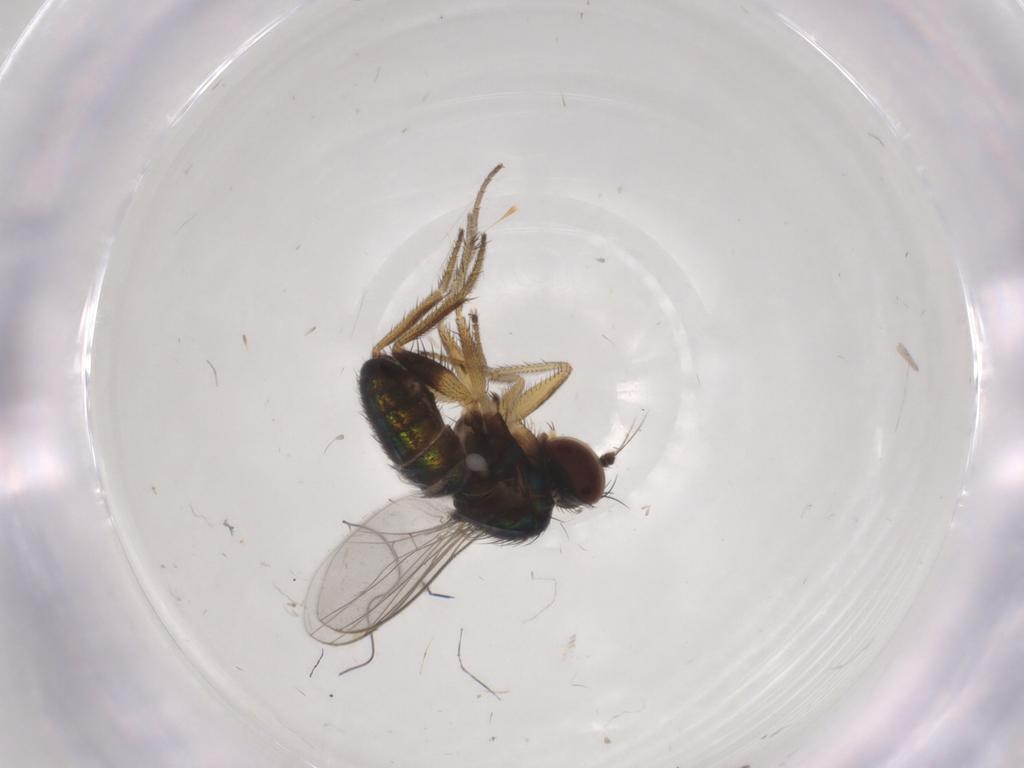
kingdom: Animalia
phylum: Arthropoda
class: Insecta
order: Diptera
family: Dolichopodidae
